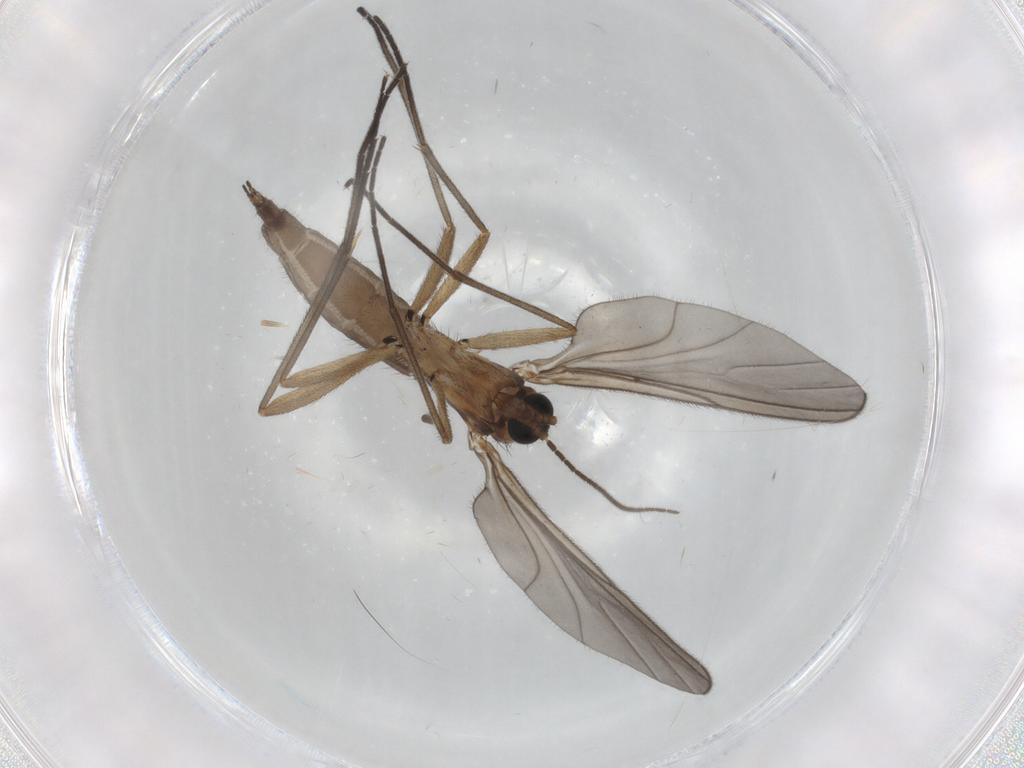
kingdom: Animalia
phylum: Arthropoda
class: Insecta
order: Diptera
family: Sciaridae
